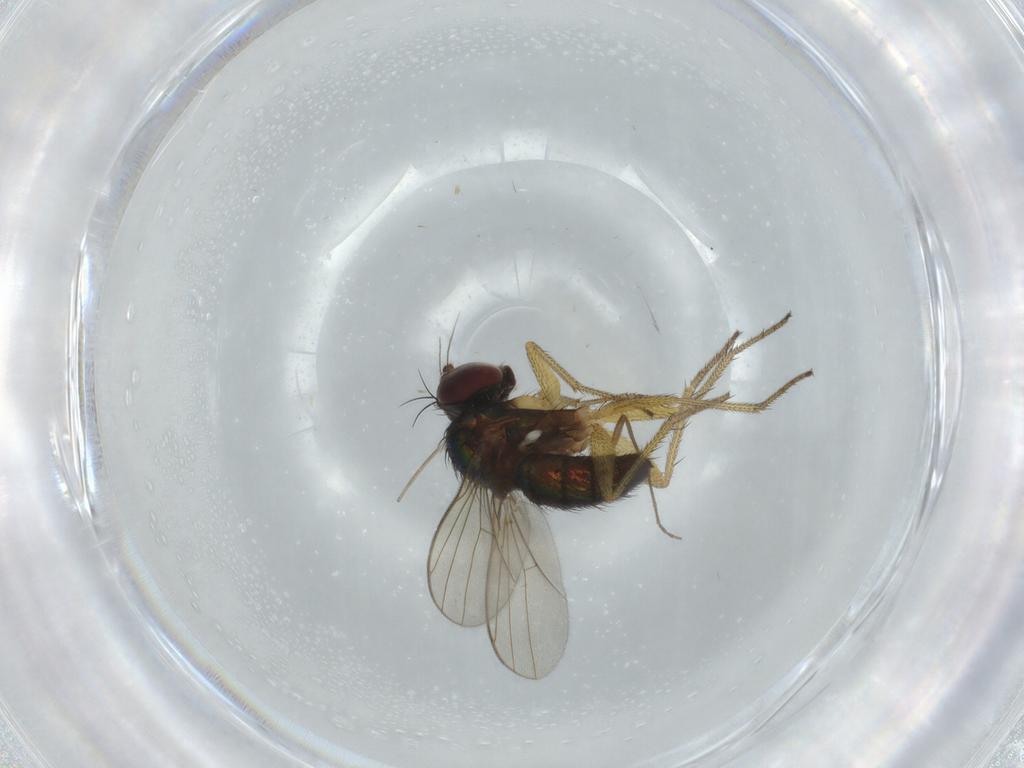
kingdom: Animalia
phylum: Arthropoda
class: Insecta
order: Diptera
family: Dolichopodidae
